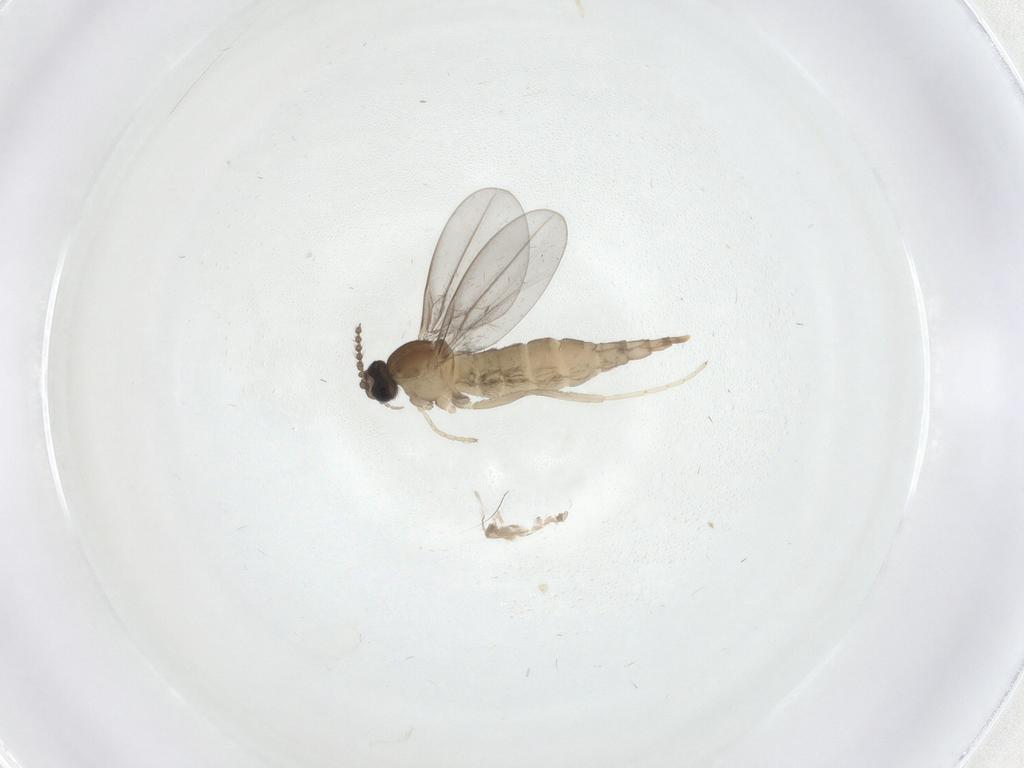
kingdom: Animalia
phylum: Arthropoda
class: Insecta
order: Diptera
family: Cecidomyiidae
